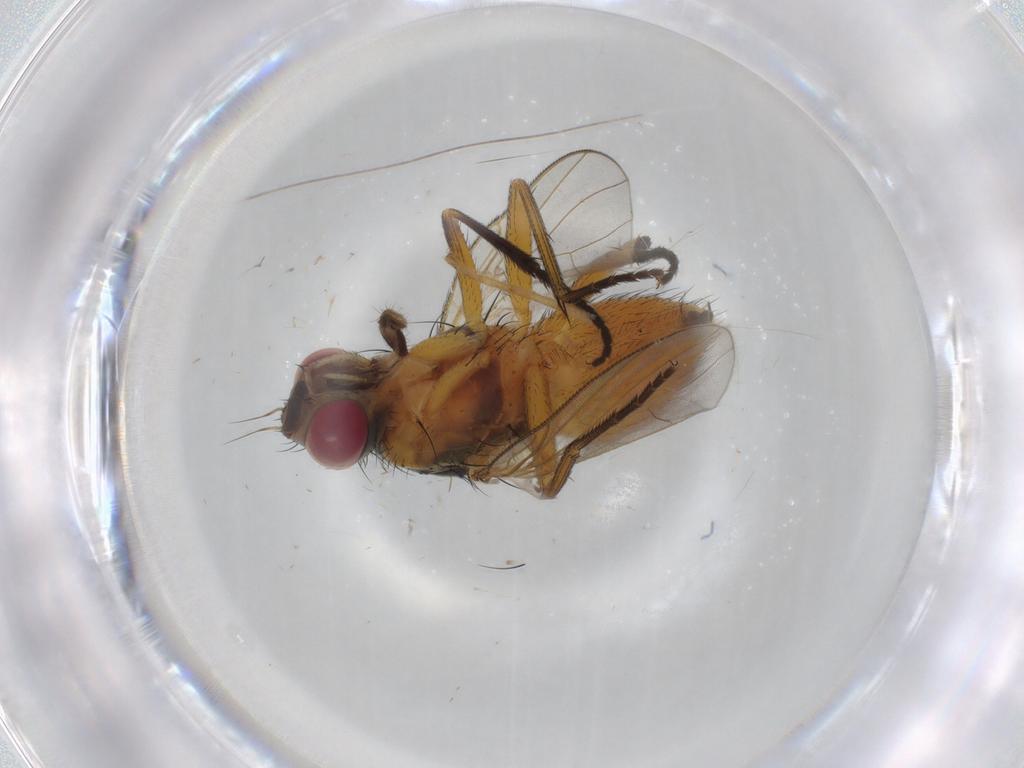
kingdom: Animalia
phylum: Arthropoda
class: Insecta
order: Diptera
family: Muscidae
